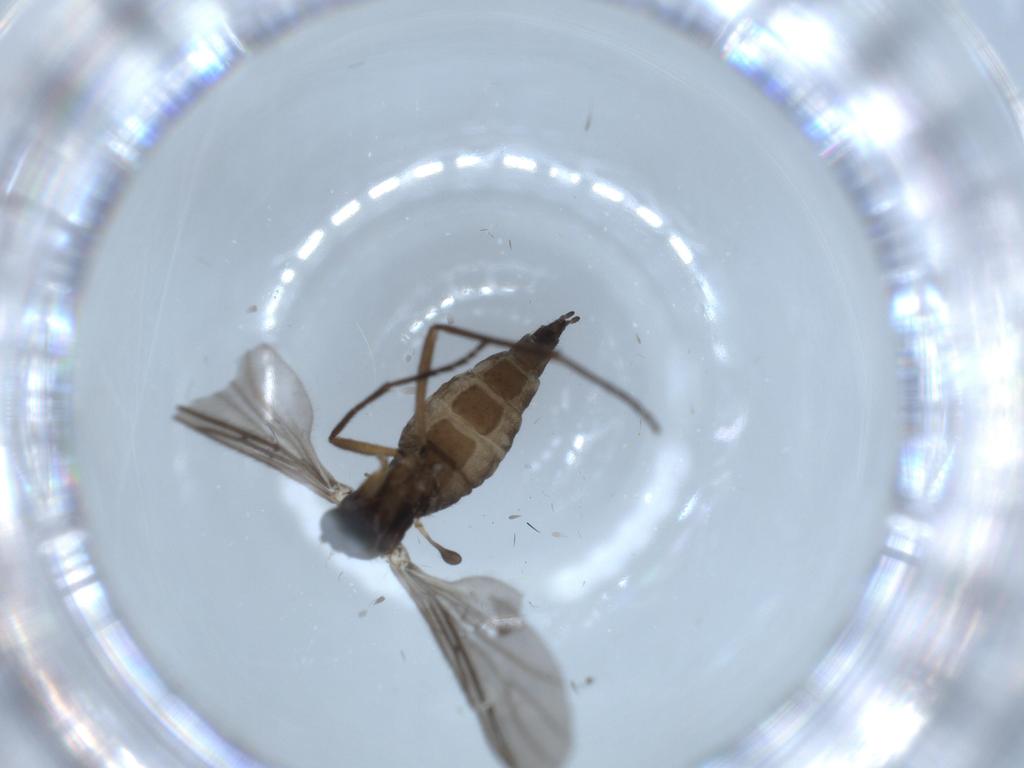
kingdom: Animalia
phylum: Arthropoda
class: Insecta
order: Diptera
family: Sciaridae
